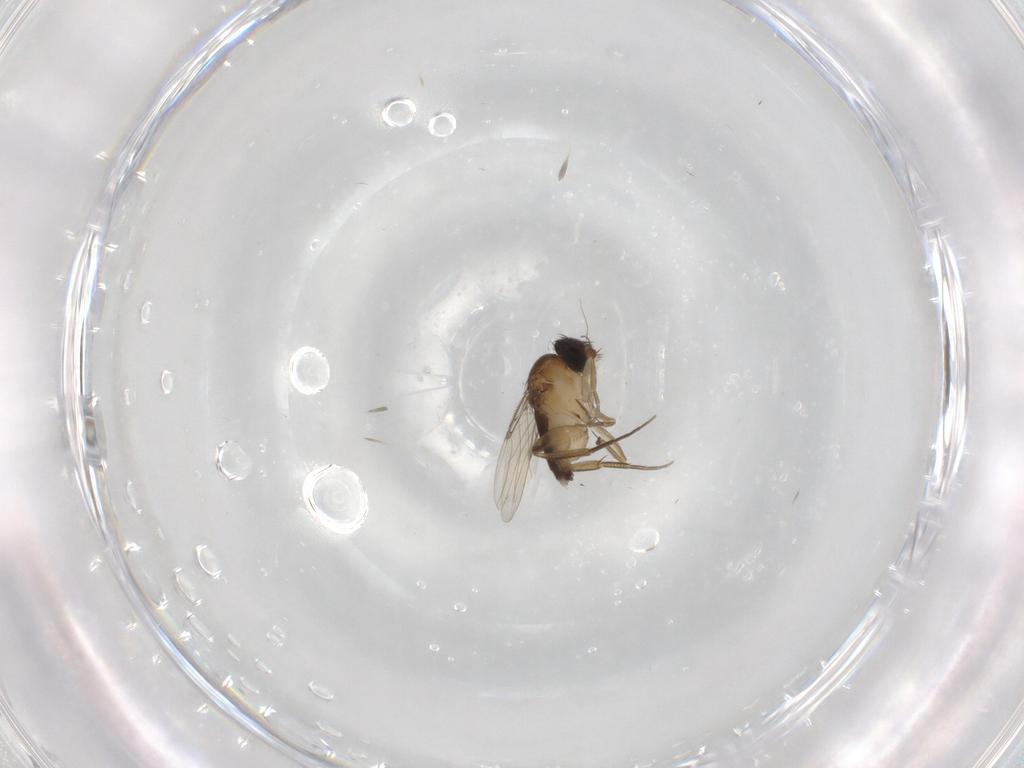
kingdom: Animalia
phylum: Arthropoda
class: Insecta
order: Diptera
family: Phoridae
